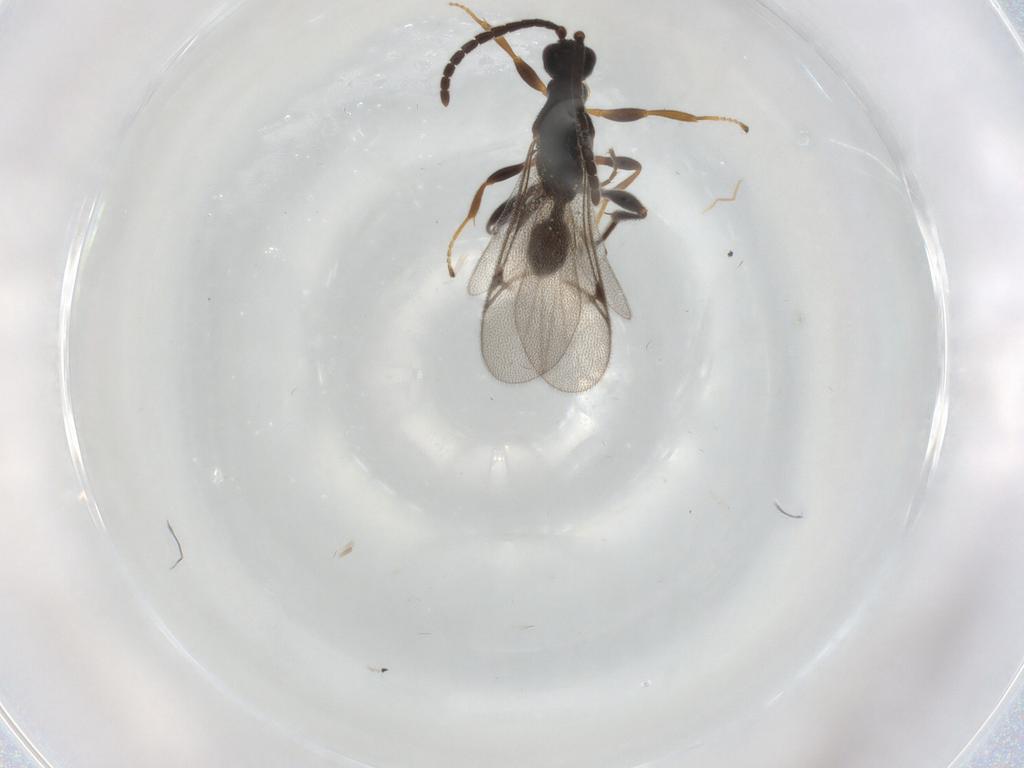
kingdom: Animalia
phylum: Arthropoda
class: Insecta
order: Hymenoptera
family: Proctotrupidae
